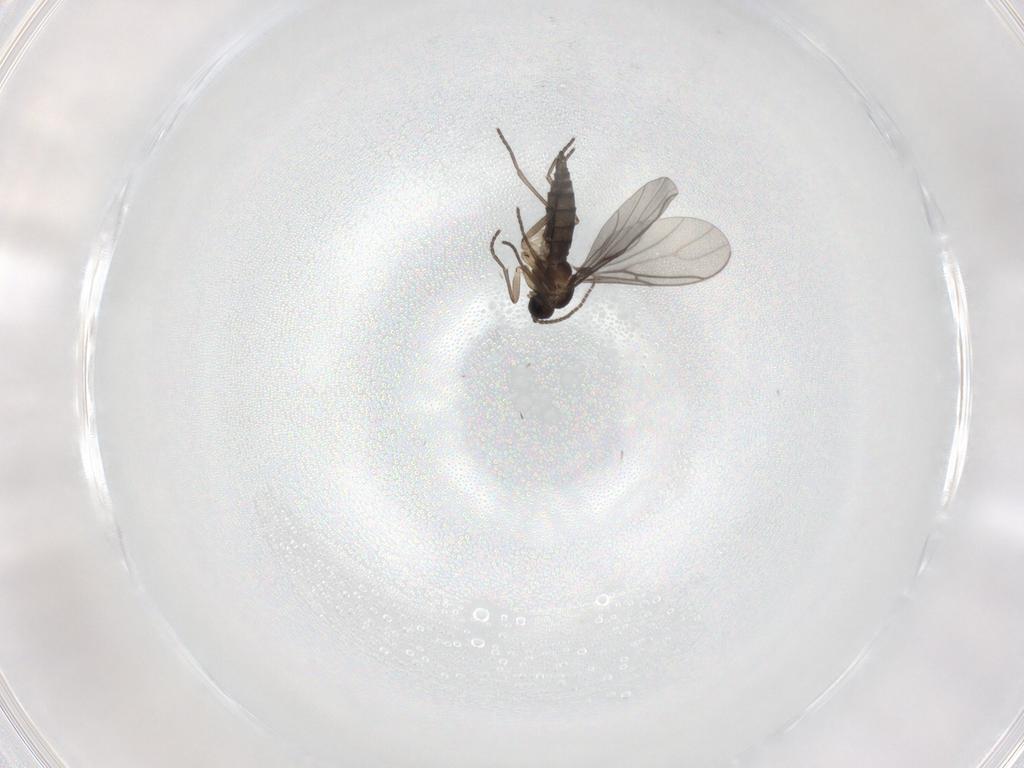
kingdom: Animalia
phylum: Arthropoda
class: Insecta
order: Diptera
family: Sciaridae
